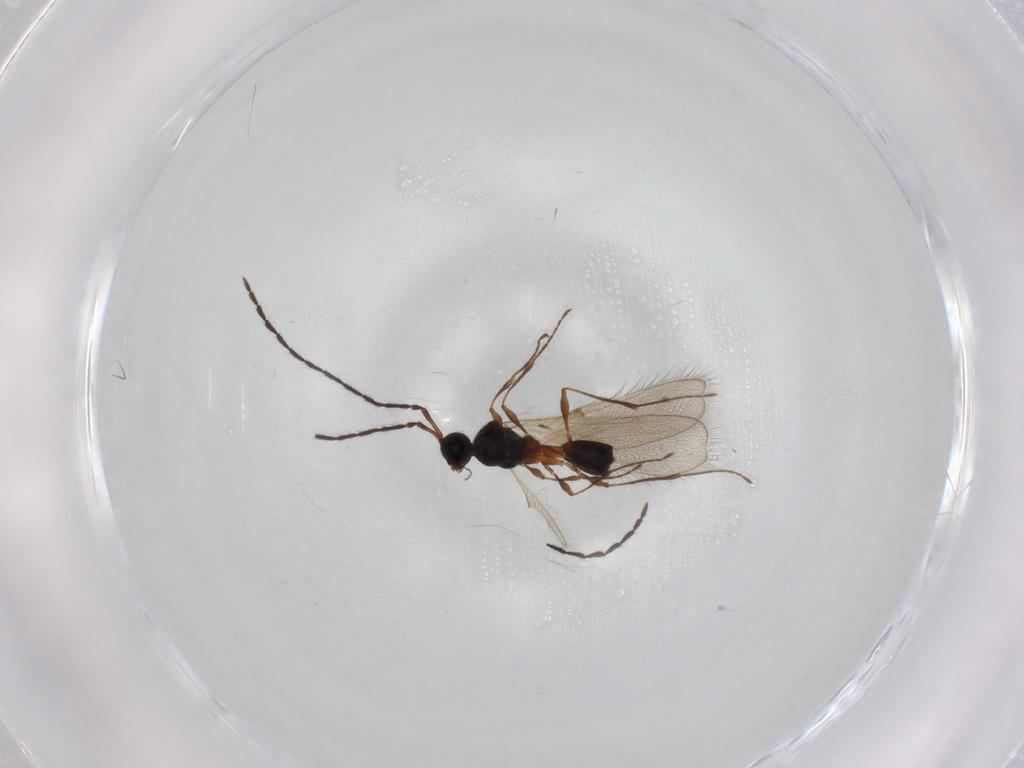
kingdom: Animalia
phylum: Arthropoda
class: Insecta
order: Hymenoptera
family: Diapriidae
